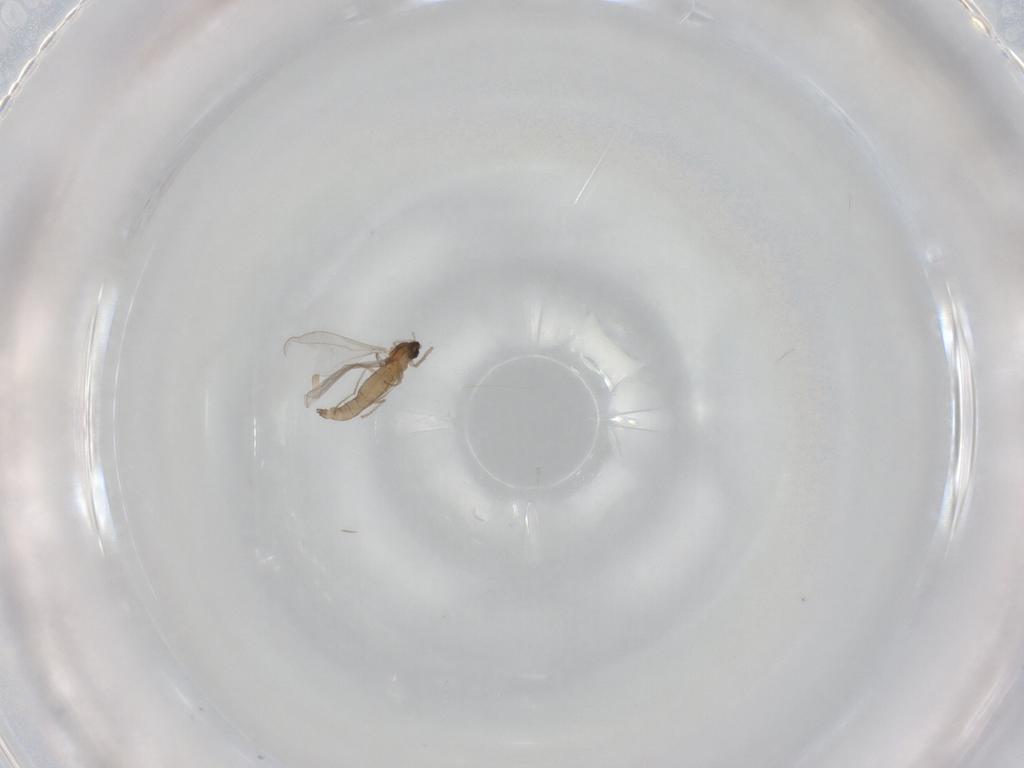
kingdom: Animalia
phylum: Arthropoda
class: Insecta
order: Diptera
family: Cecidomyiidae
